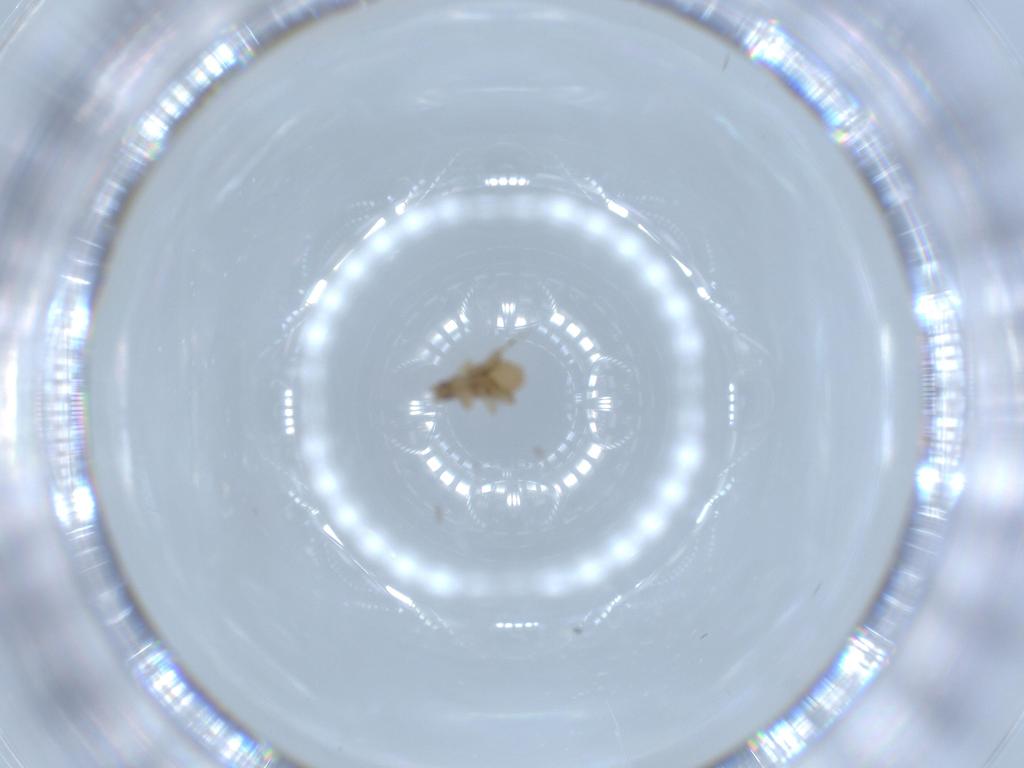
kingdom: Animalia
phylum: Arthropoda
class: Insecta
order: Diptera
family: Phoridae
